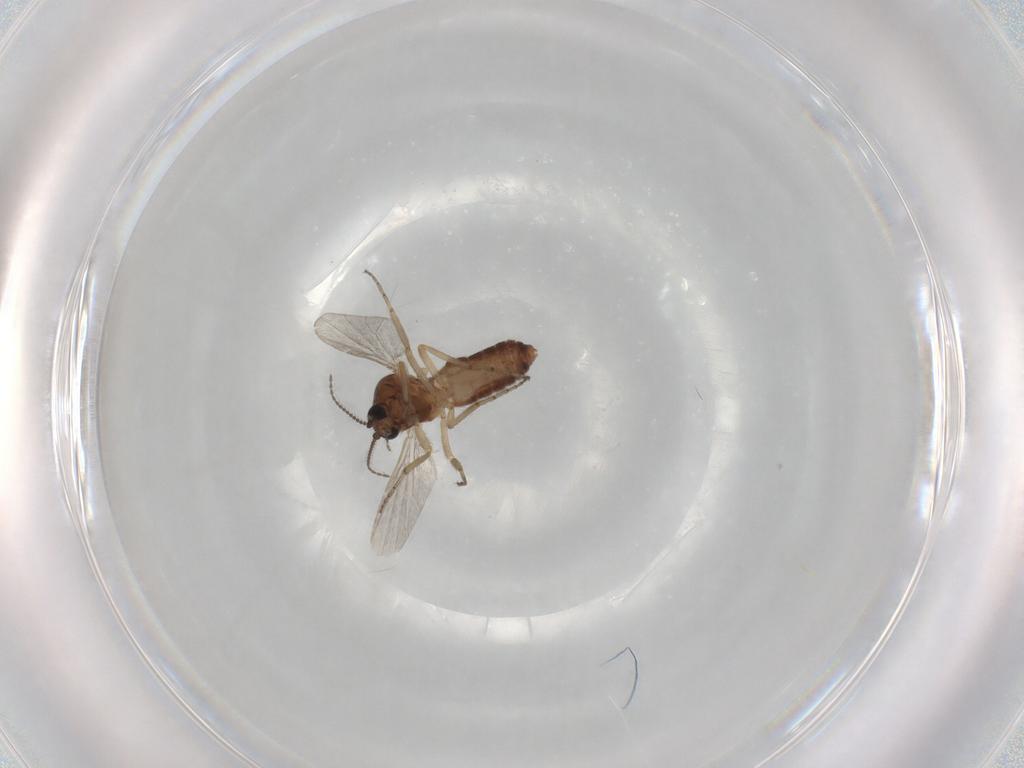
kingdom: Animalia
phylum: Arthropoda
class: Insecta
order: Diptera
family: Ceratopogonidae
